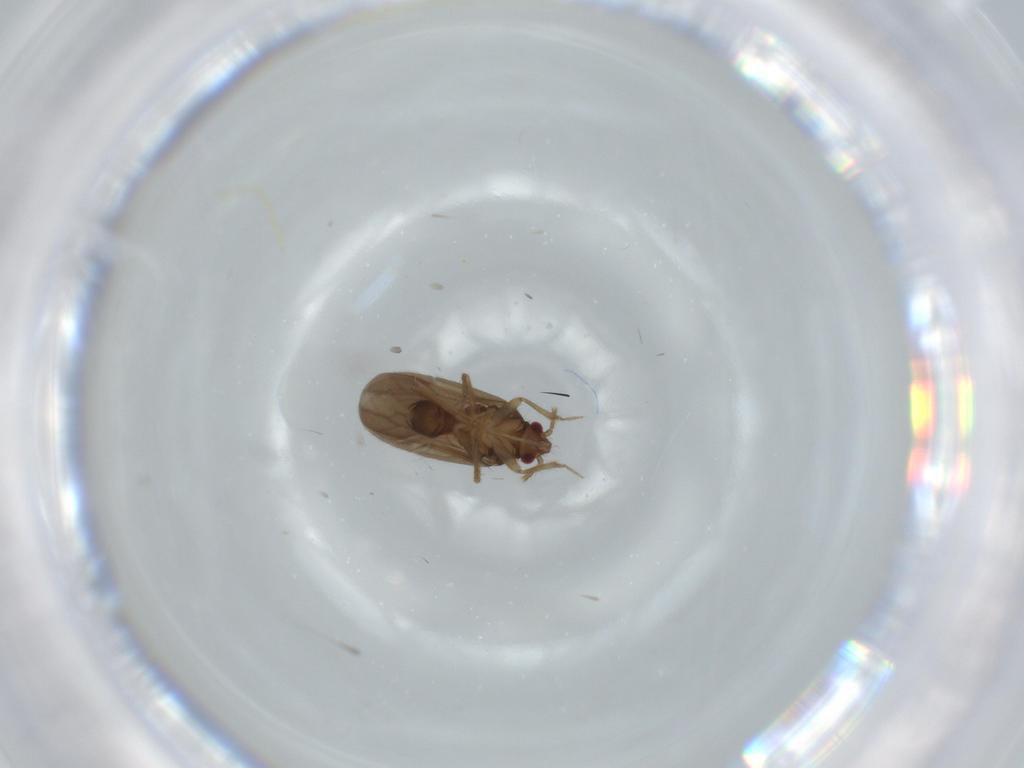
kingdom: Animalia
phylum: Arthropoda
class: Insecta
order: Hemiptera
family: Ceratocombidae
